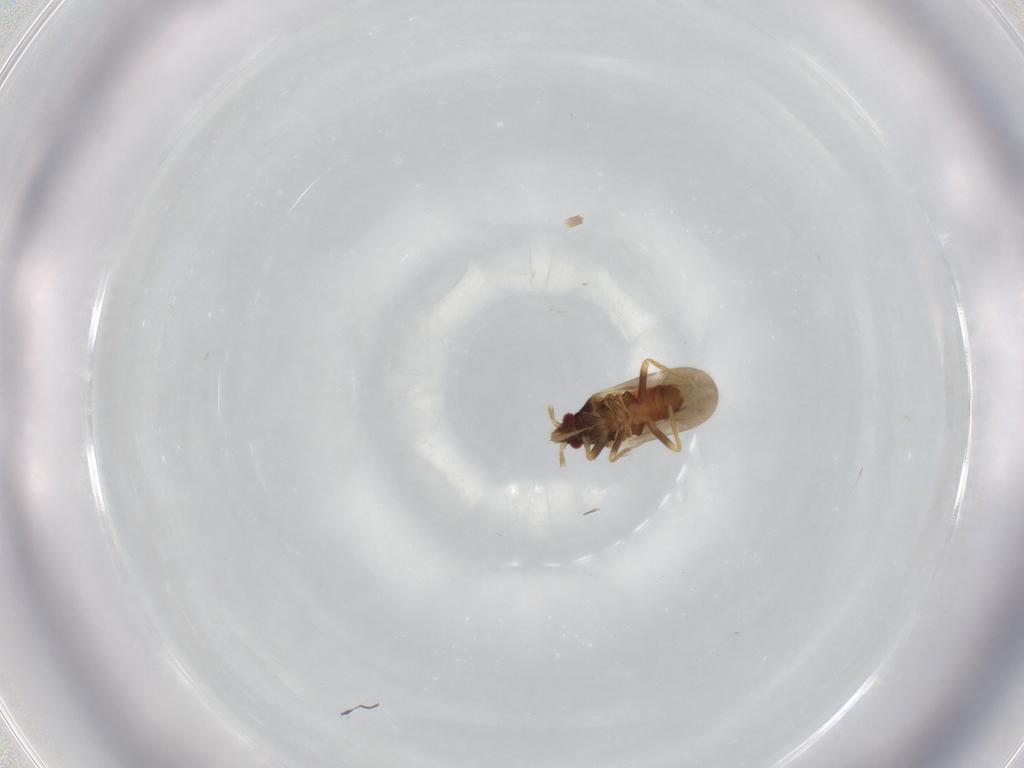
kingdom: Animalia
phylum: Arthropoda
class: Insecta
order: Hemiptera
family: Ceratocombidae
